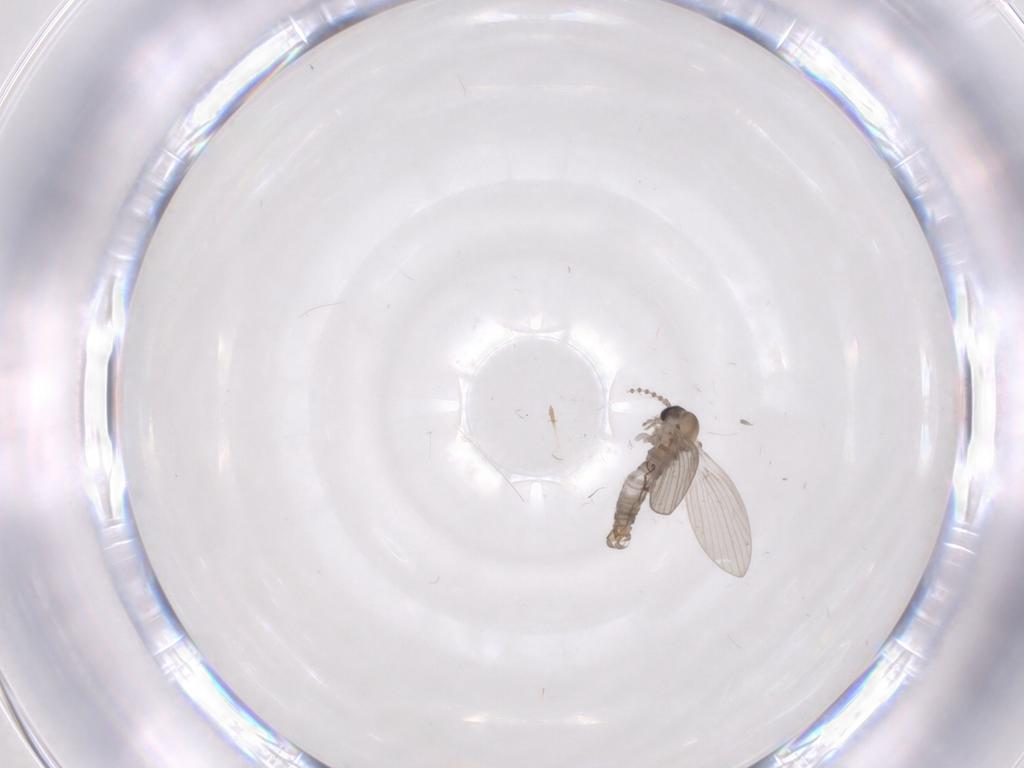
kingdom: Animalia
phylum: Arthropoda
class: Insecta
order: Diptera
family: Psychodidae
